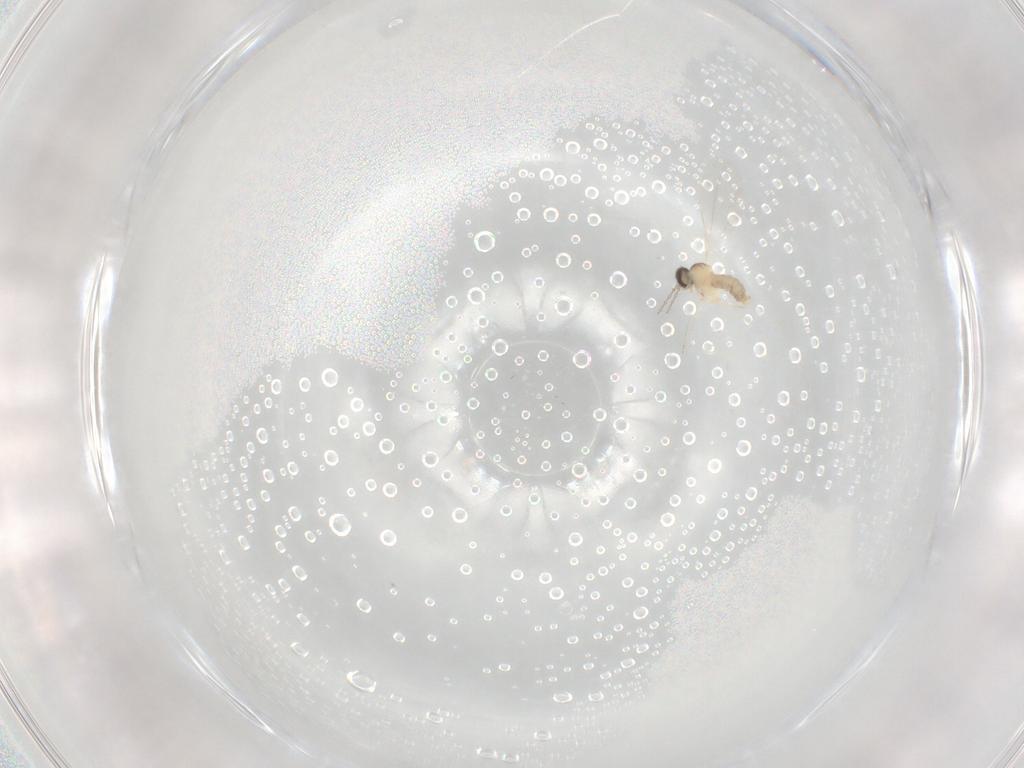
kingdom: Animalia
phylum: Arthropoda
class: Insecta
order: Diptera
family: Cecidomyiidae
